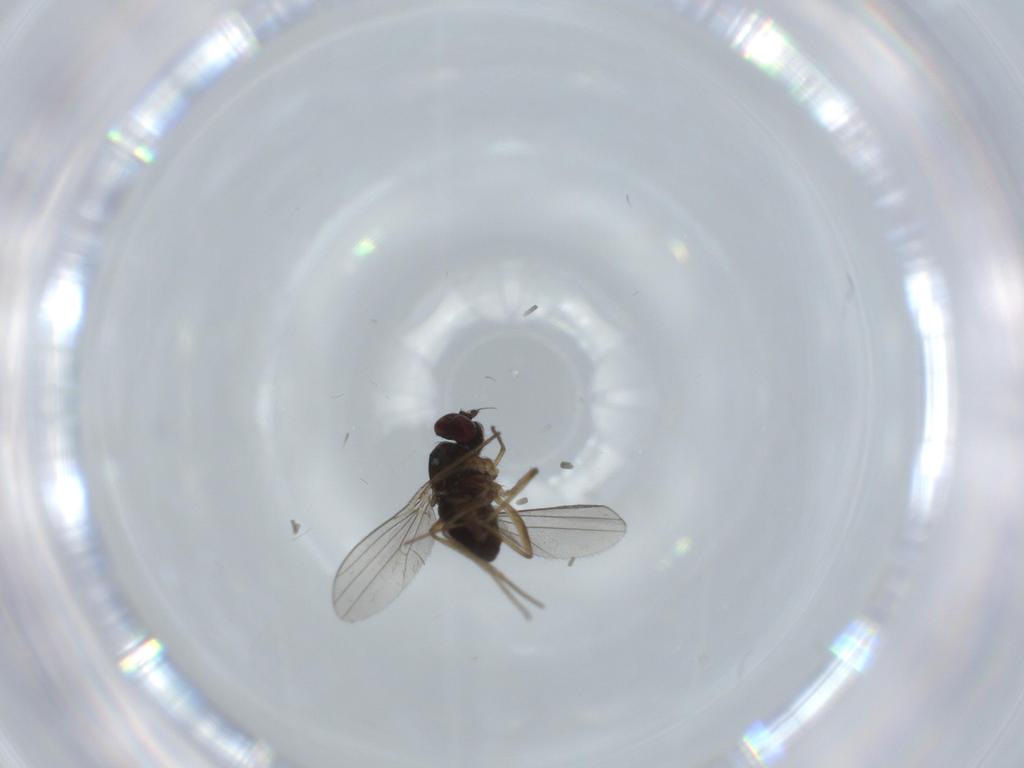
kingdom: Animalia
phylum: Arthropoda
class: Insecta
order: Diptera
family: Dolichopodidae
